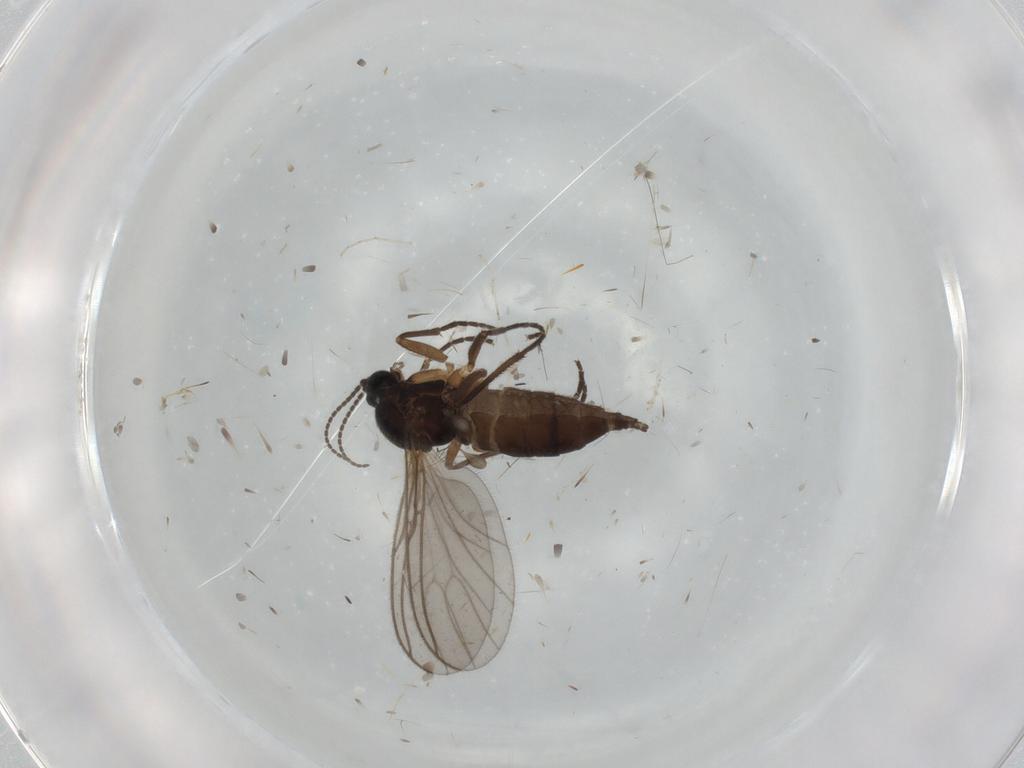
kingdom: Animalia
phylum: Arthropoda
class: Insecta
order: Diptera
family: Sciaridae
